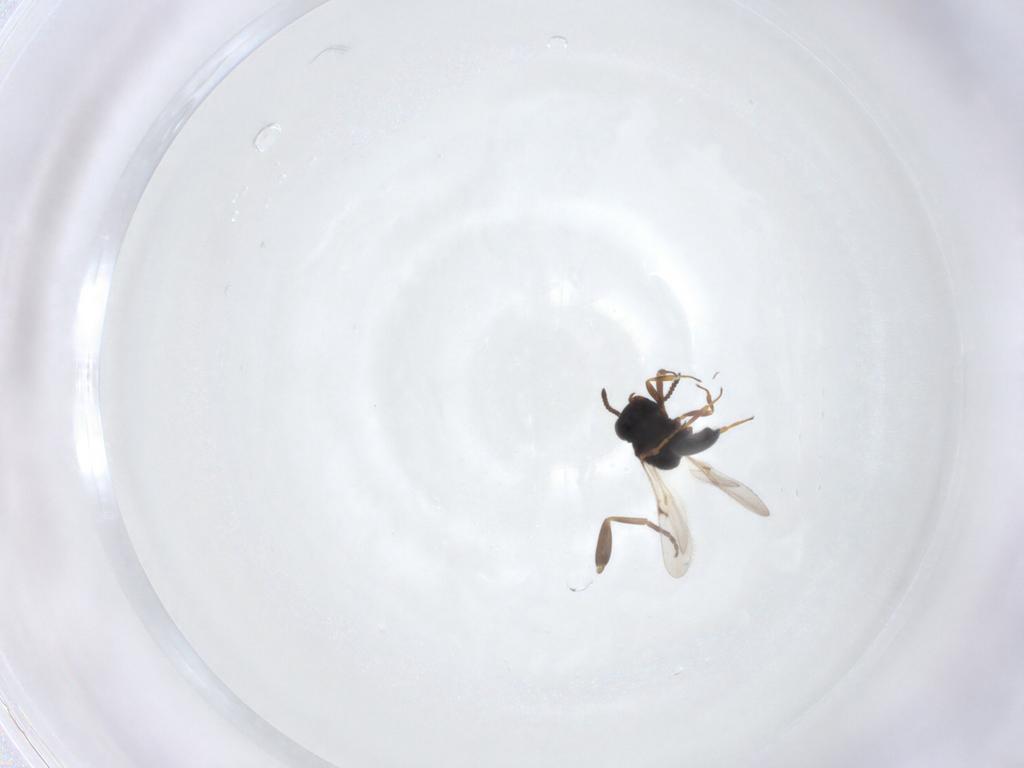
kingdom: Animalia
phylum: Arthropoda
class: Arachnida
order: Araneae
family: Pholcidae
